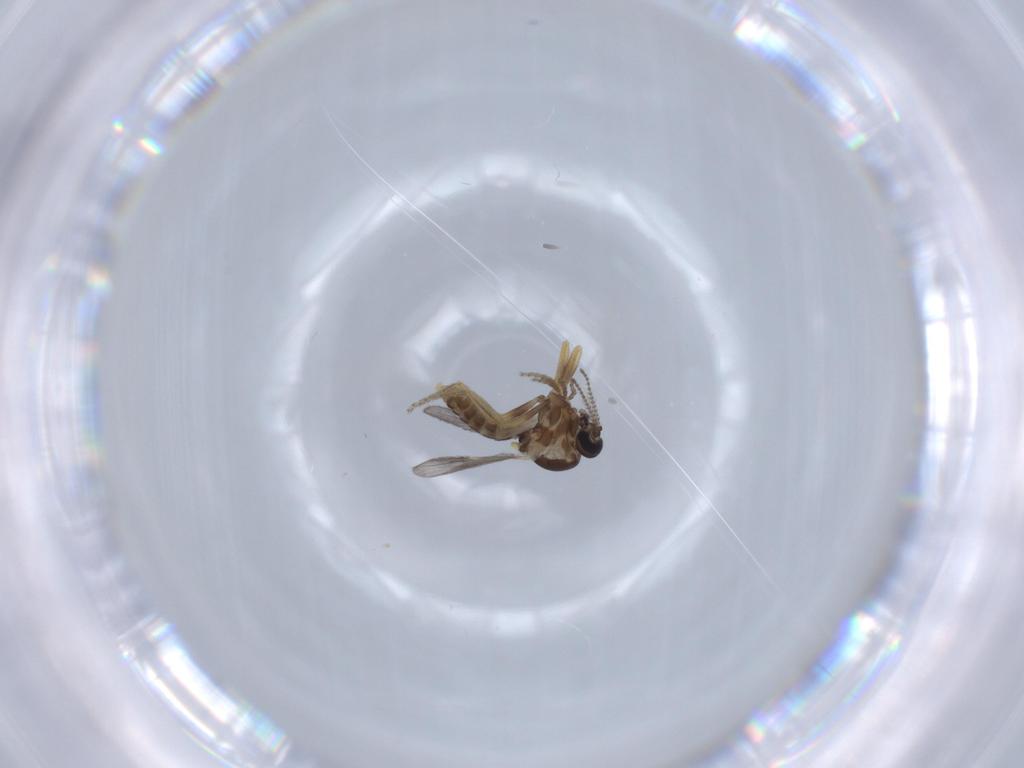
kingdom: Animalia
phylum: Arthropoda
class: Insecta
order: Diptera
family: Ceratopogonidae
